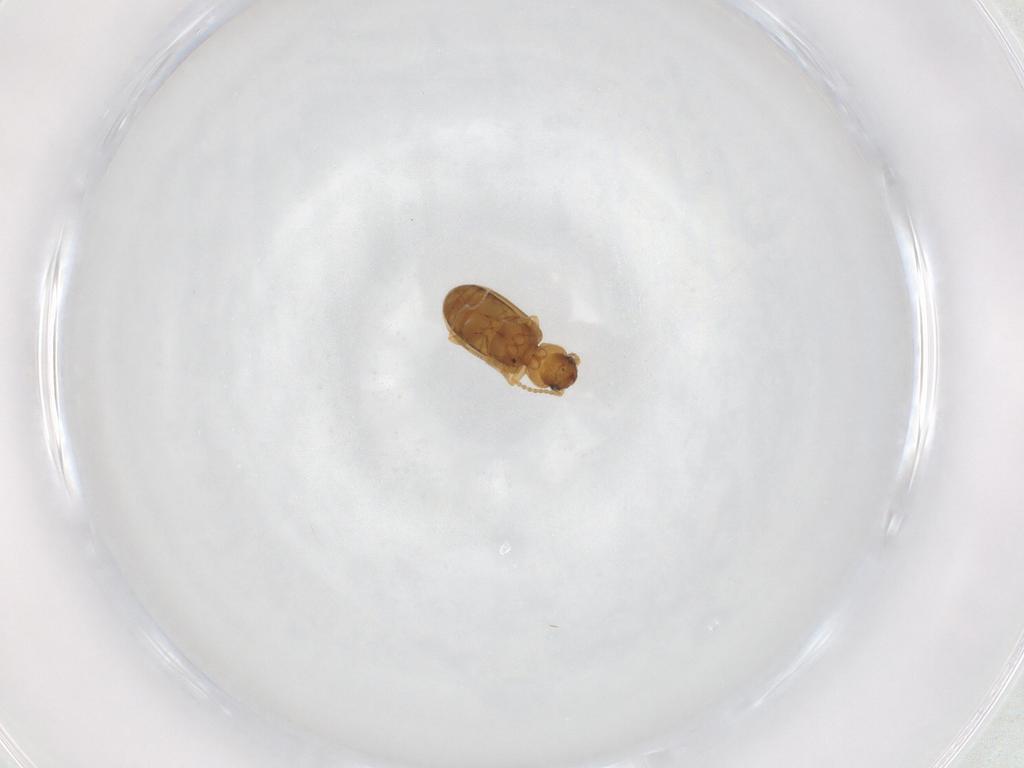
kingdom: Animalia
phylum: Arthropoda
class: Insecta
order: Coleoptera
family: Carabidae
